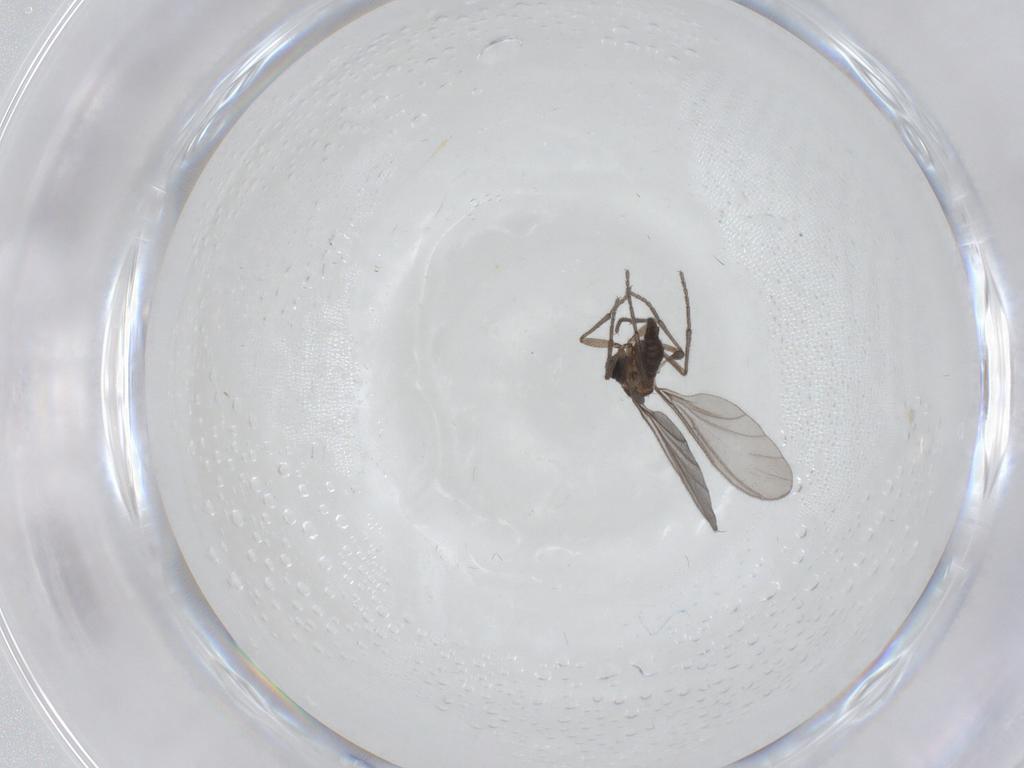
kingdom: Animalia
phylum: Arthropoda
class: Insecta
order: Diptera
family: Sciaridae
